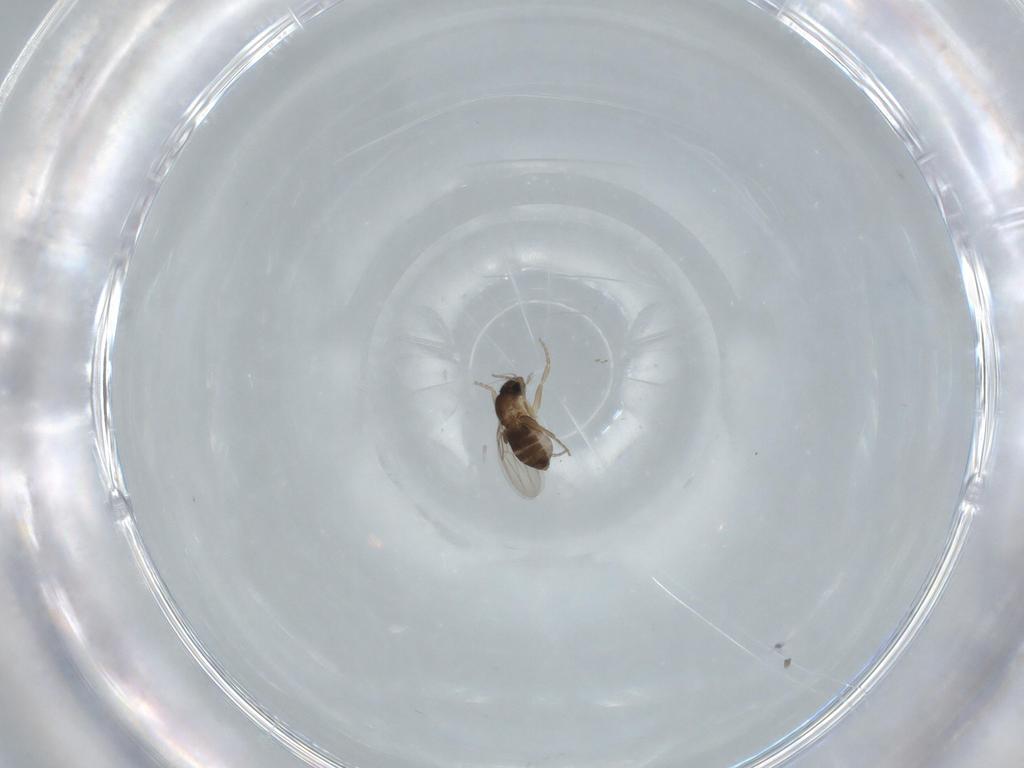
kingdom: Animalia
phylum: Arthropoda
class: Insecta
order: Diptera
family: Phoridae
